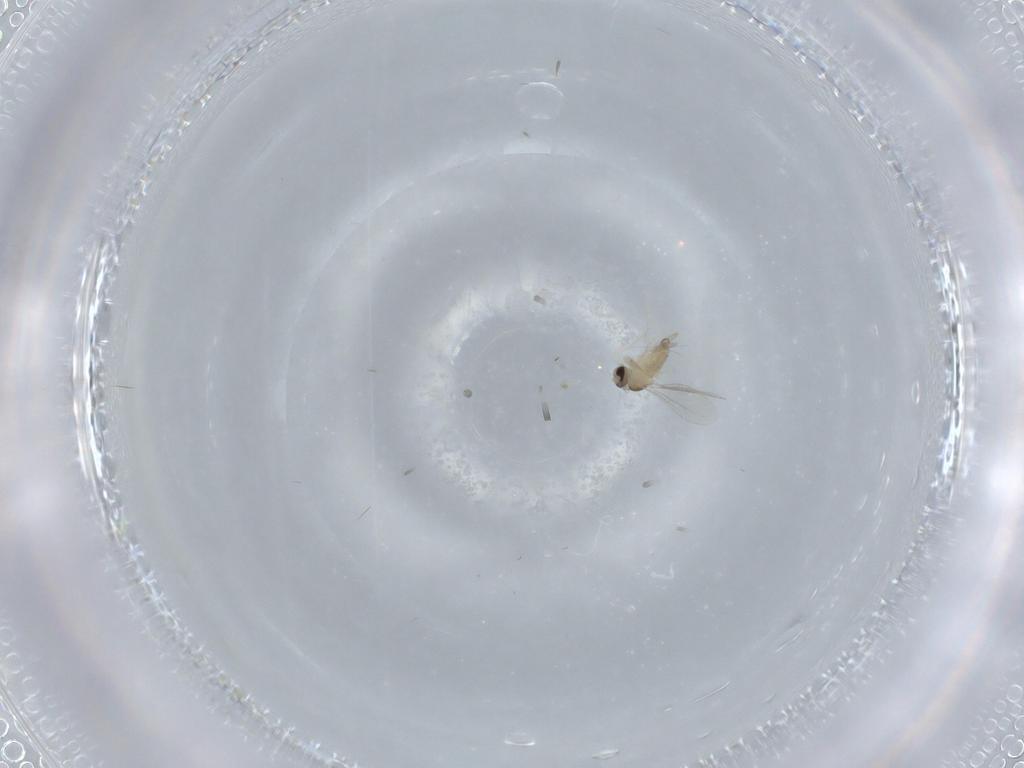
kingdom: Animalia
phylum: Arthropoda
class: Insecta
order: Diptera
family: Cecidomyiidae
